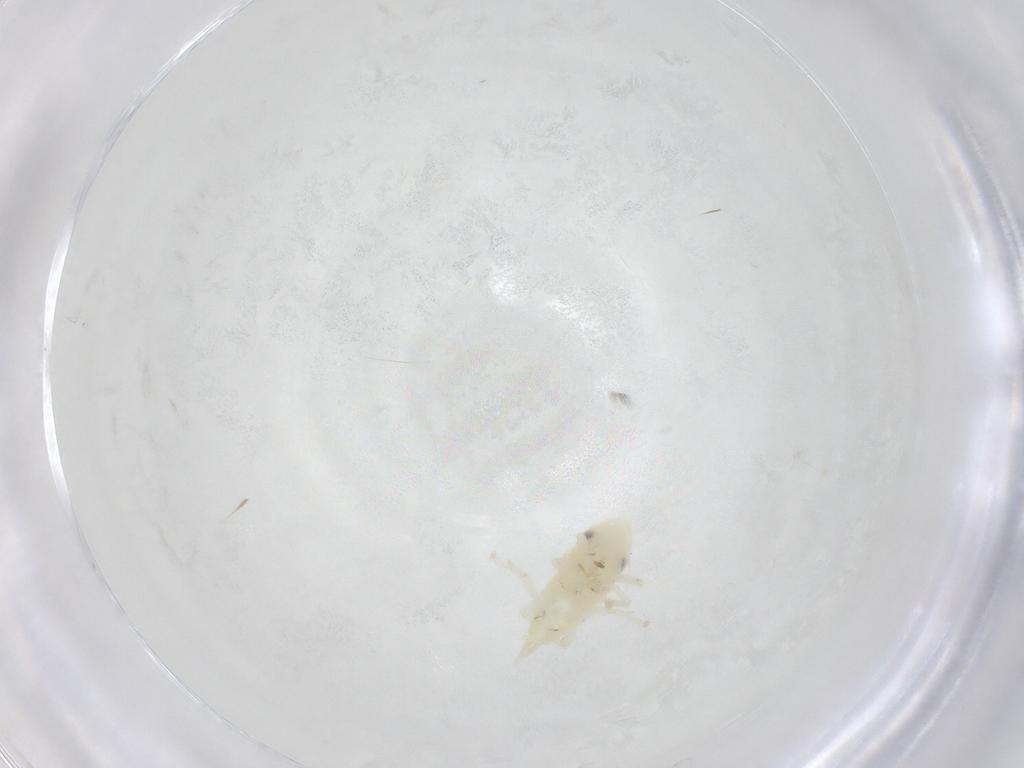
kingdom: Animalia
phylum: Arthropoda
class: Insecta
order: Hemiptera
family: Cicadellidae
